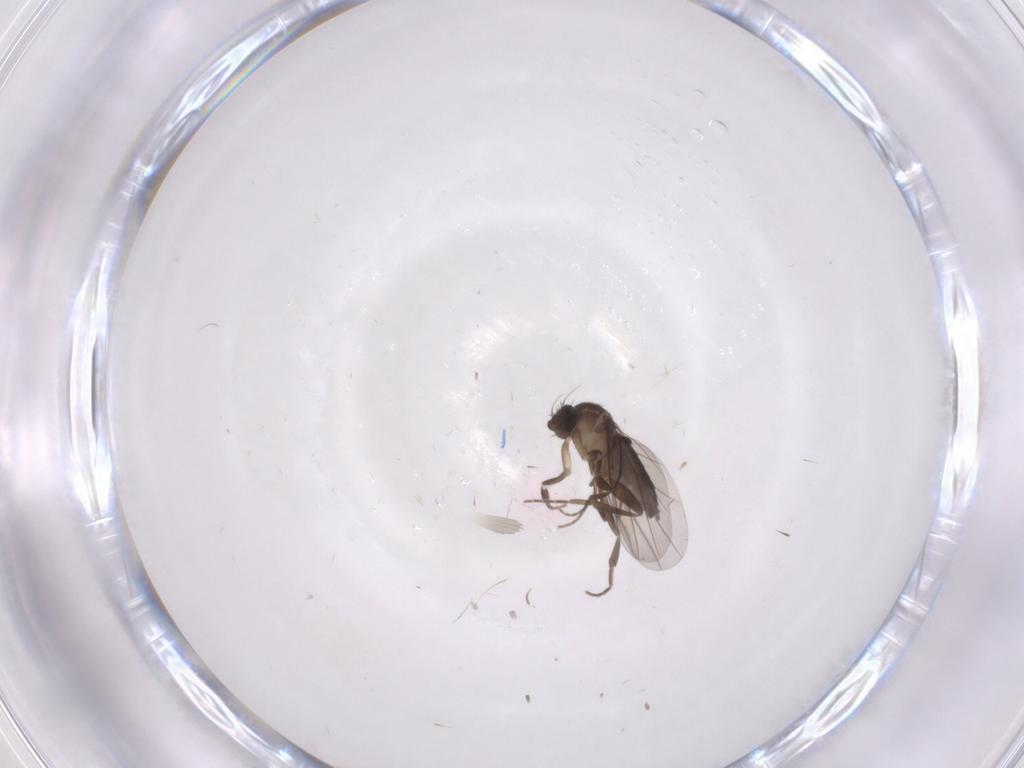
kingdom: Animalia
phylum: Arthropoda
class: Insecta
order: Diptera
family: Phoridae
